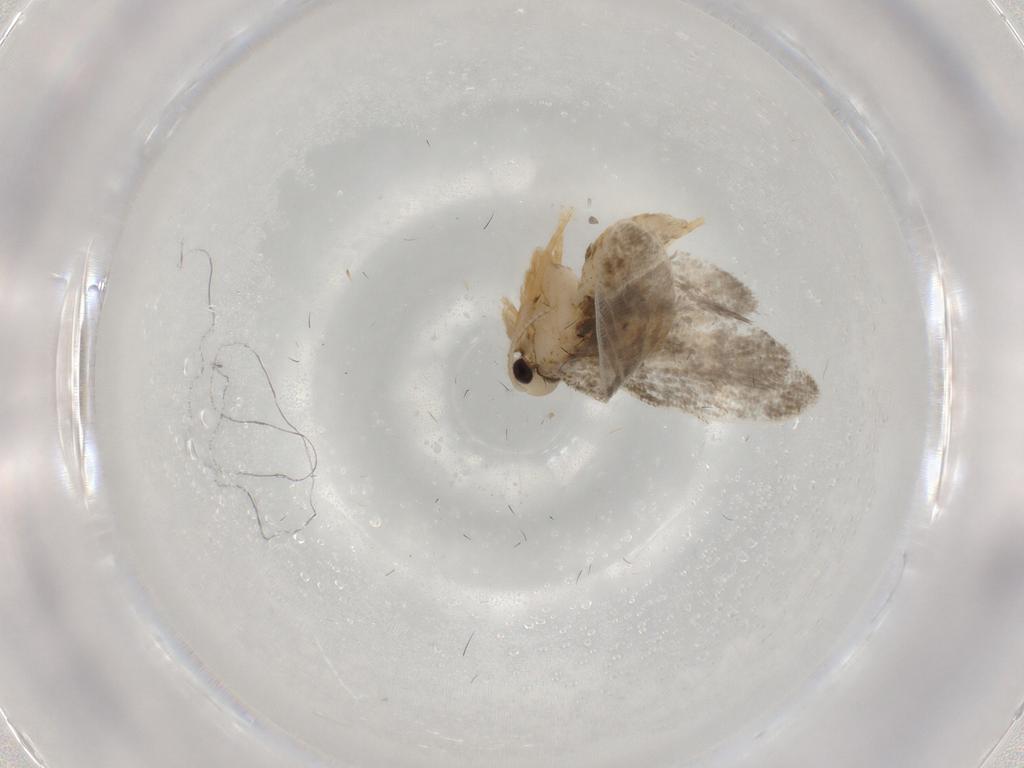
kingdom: Animalia
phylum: Arthropoda
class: Insecta
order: Lepidoptera
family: Psychidae
